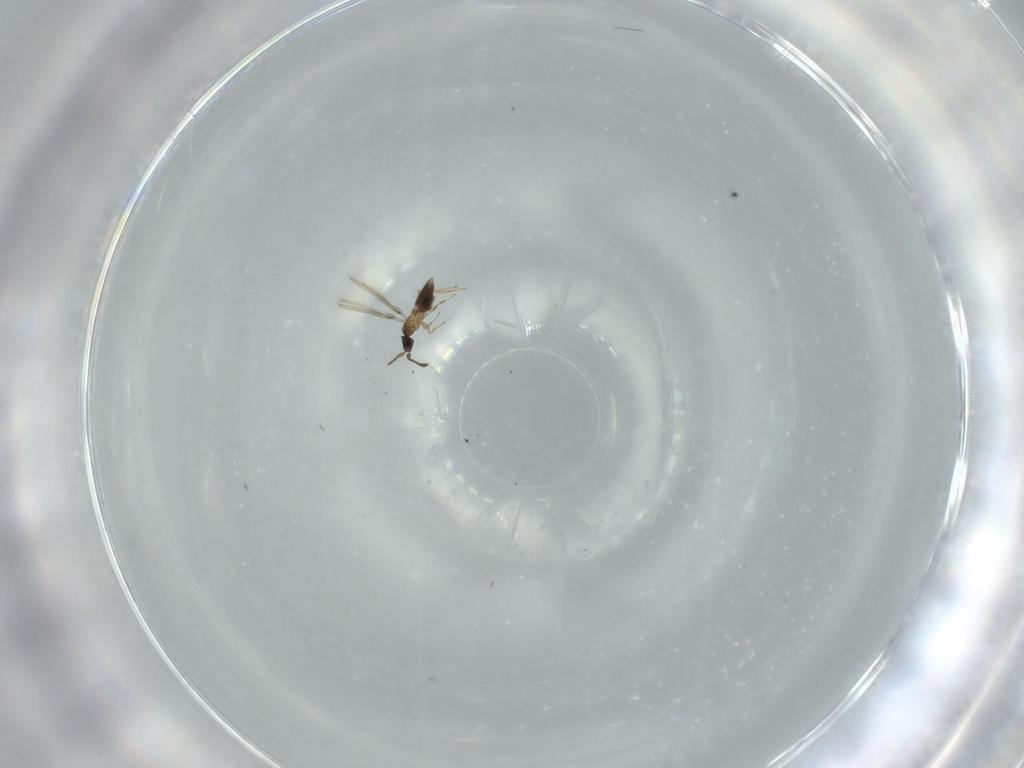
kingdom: Animalia
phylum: Arthropoda
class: Insecta
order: Hymenoptera
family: Mymaridae
